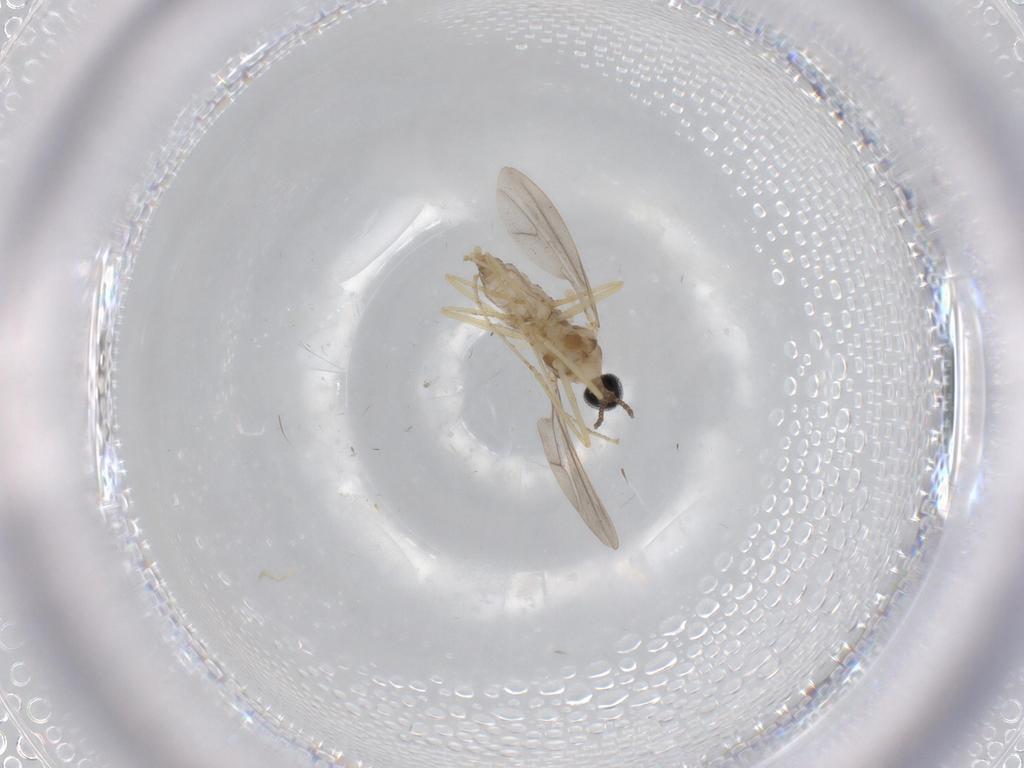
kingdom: Animalia
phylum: Arthropoda
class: Insecta
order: Diptera
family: Cecidomyiidae
